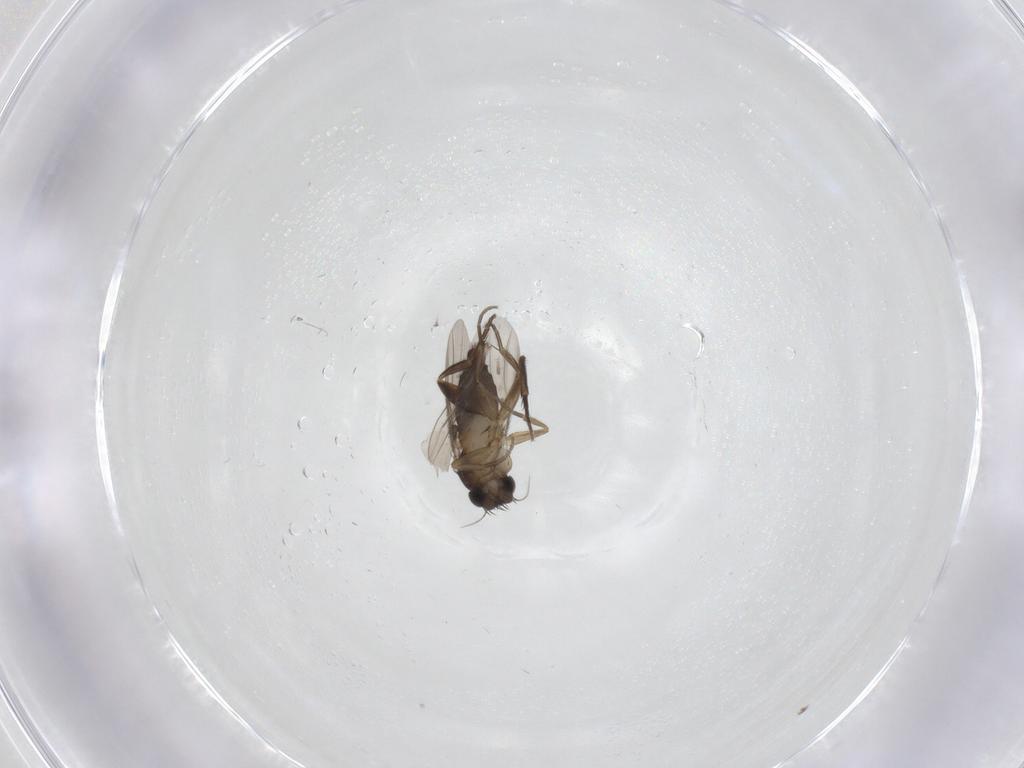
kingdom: Animalia
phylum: Arthropoda
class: Insecta
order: Diptera
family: Phoridae
